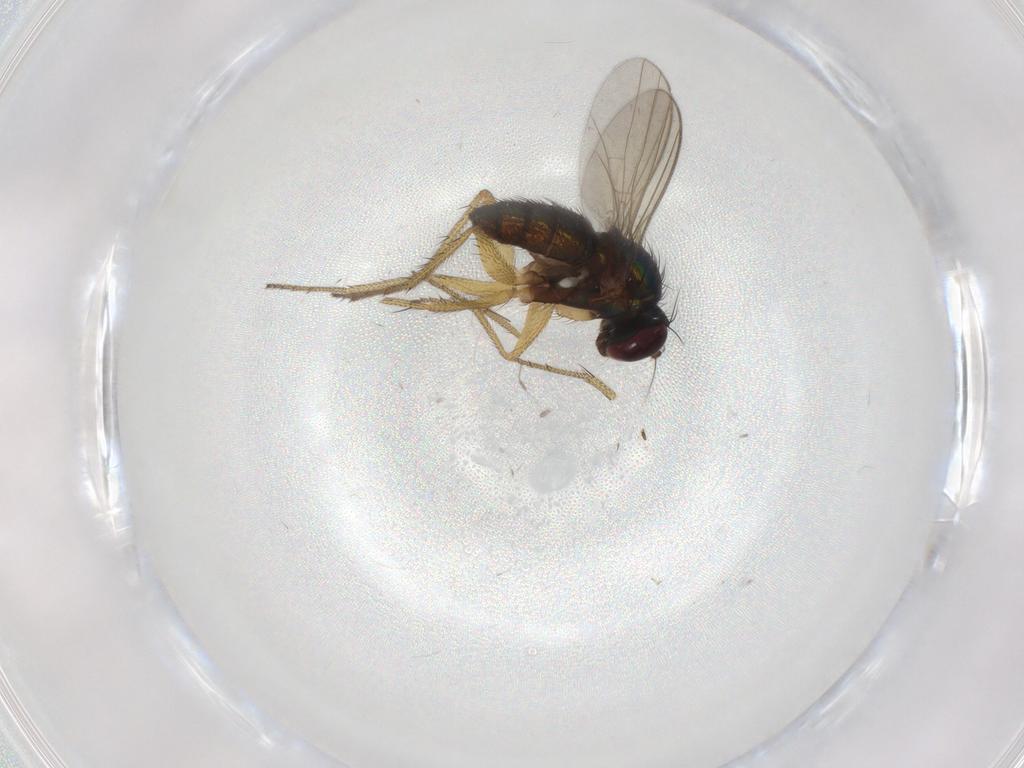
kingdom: Animalia
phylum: Arthropoda
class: Insecta
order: Diptera
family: Dolichopodidae
